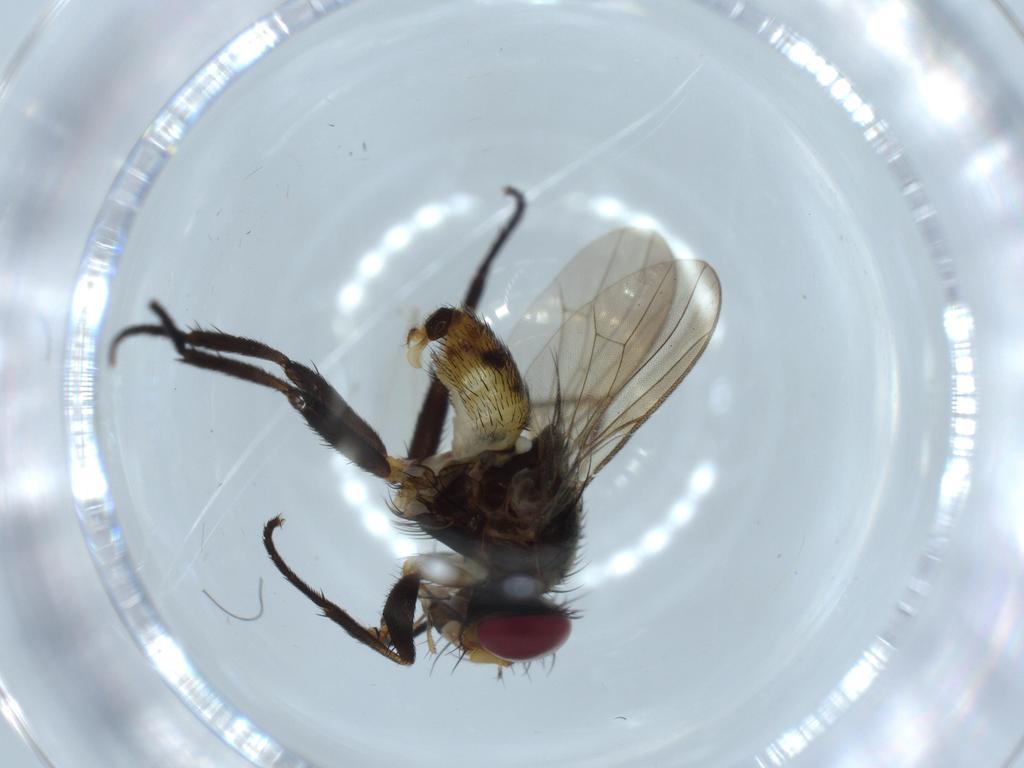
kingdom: Animalia
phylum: Arthropoda
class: Insecta
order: Diptera
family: Anthomyiidae
